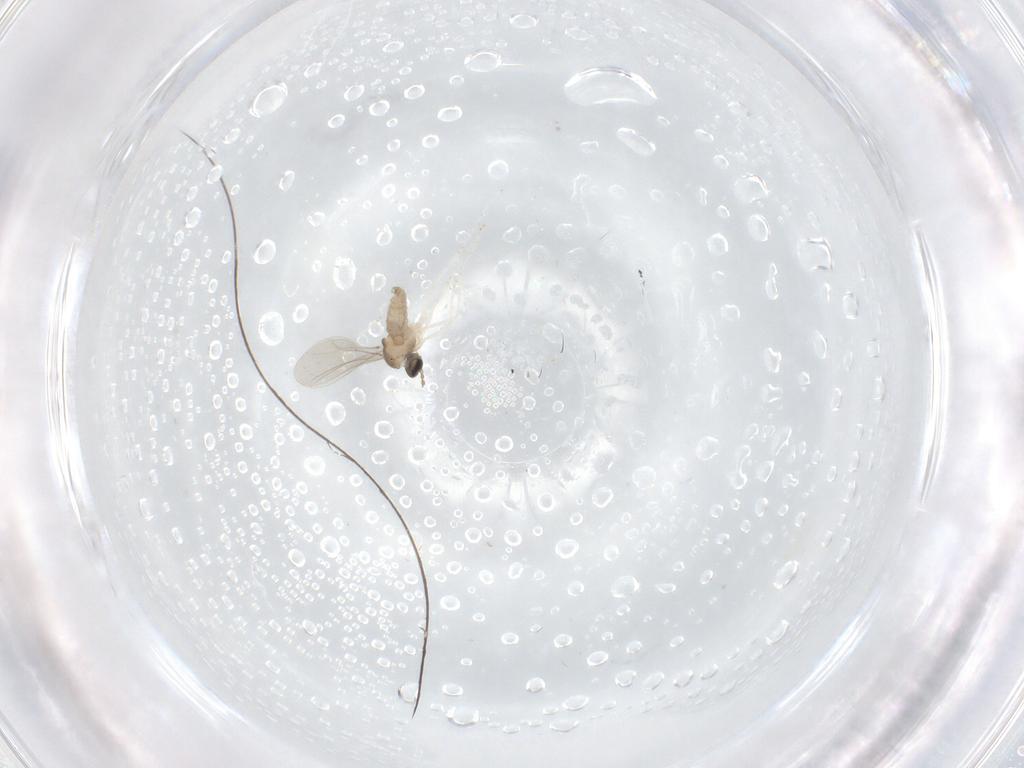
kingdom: Animalia
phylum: Arthropoda
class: Insecta
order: Diptera
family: Cecidomyiidae
